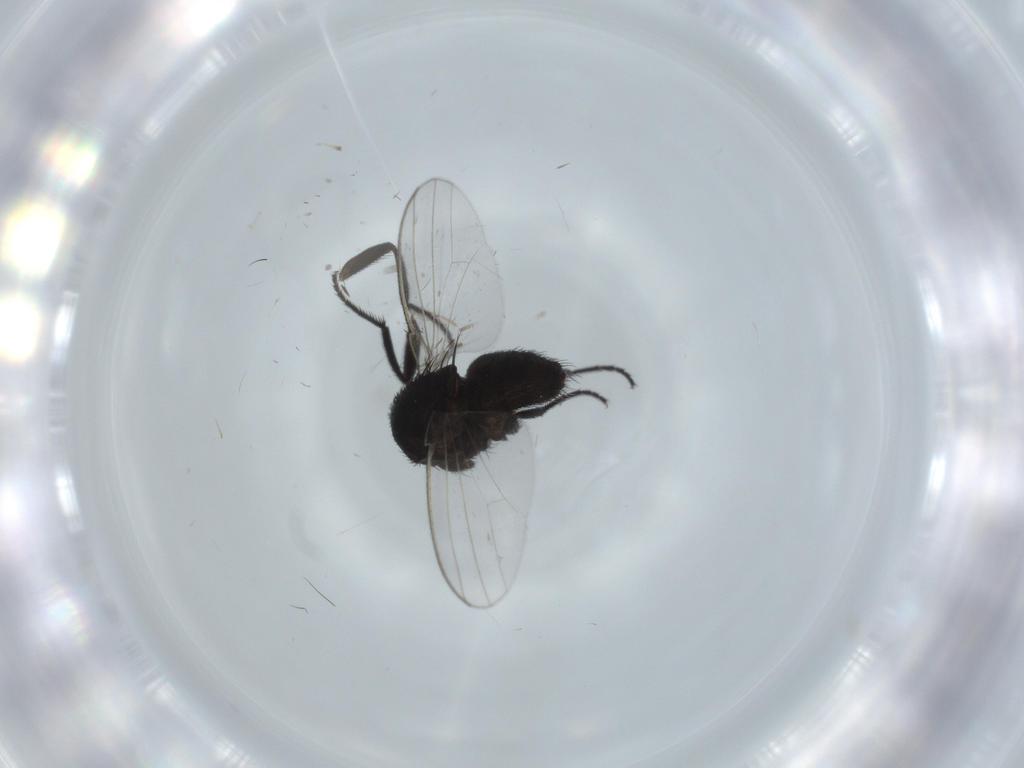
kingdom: Animalia
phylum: Arthropoda
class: Insecta
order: Diptera
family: Milichiidae
